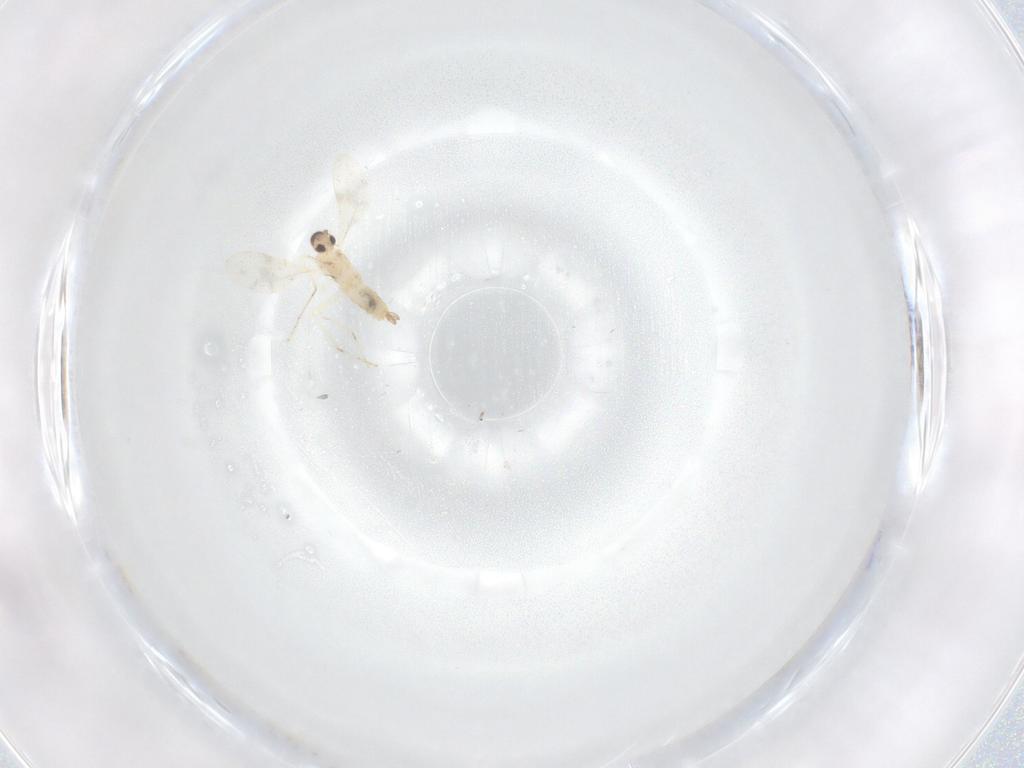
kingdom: Animalia
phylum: Arthropoda
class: Insecta
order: Diptera
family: Cecidomyiidae
